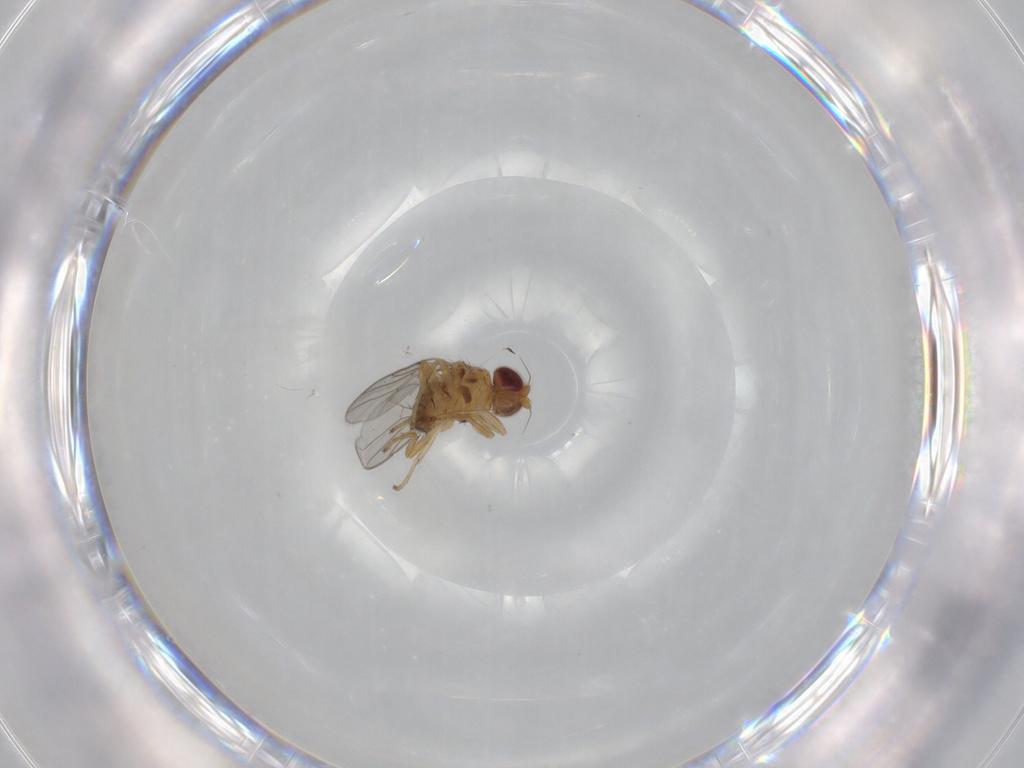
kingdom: Animalia
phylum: Arthropoda
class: Insecta
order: Diptera
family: Chloropidae
